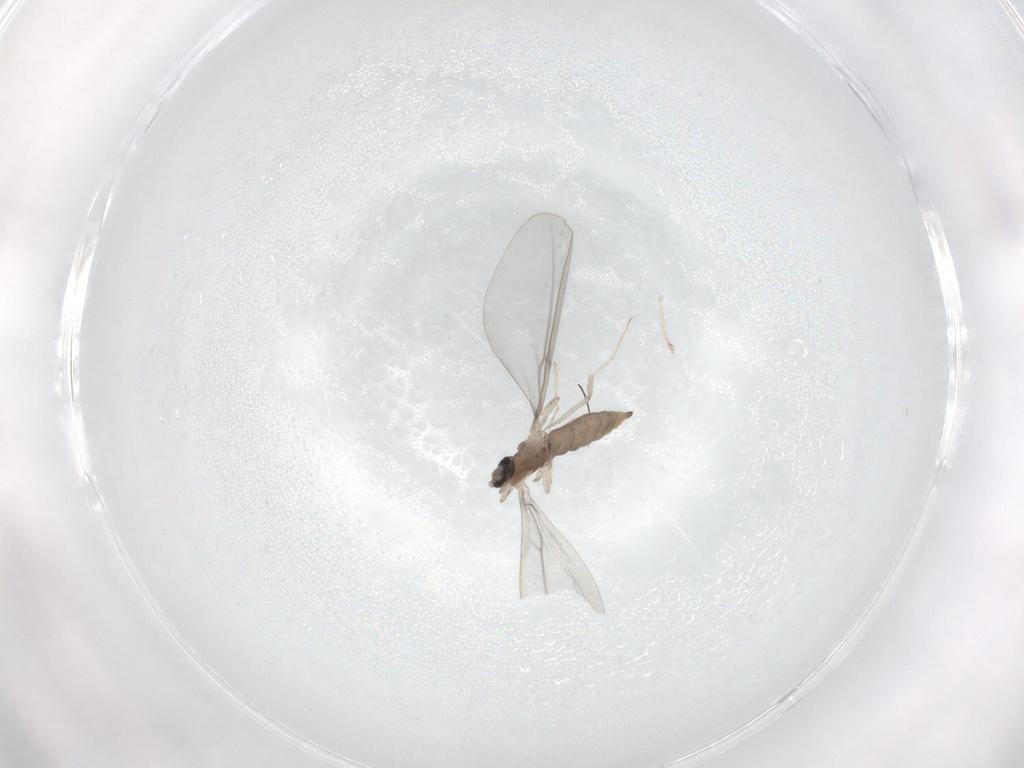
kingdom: Animalia
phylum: Arthropoda
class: Insecta
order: Diptera
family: Cecidomyiidae
